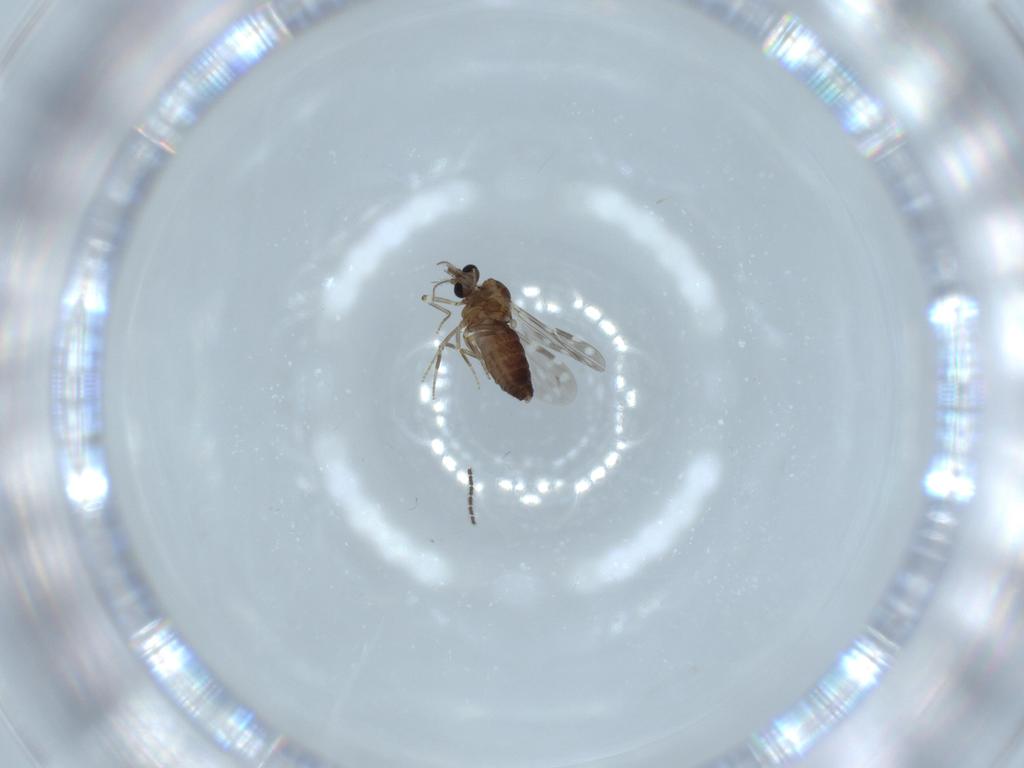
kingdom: Animalia
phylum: Arthropoda
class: Insecta
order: Diptera
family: Sciaridae
